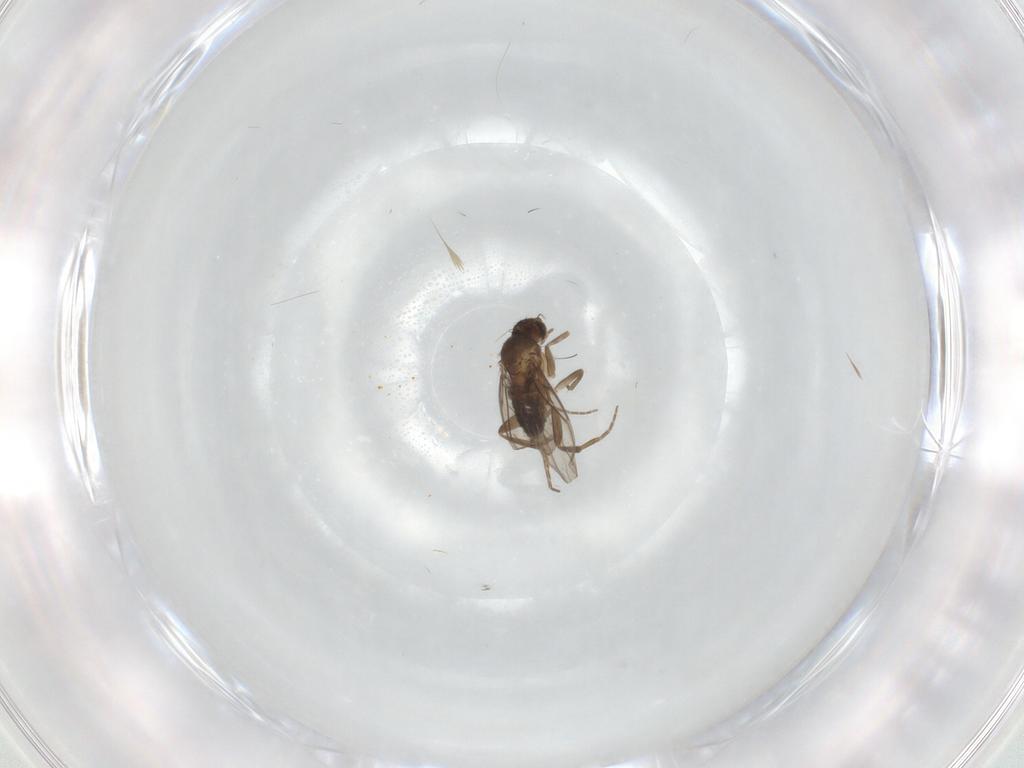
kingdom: Animalia
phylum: Arthropoda
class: Insecta
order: Diptera
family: Phoridae
